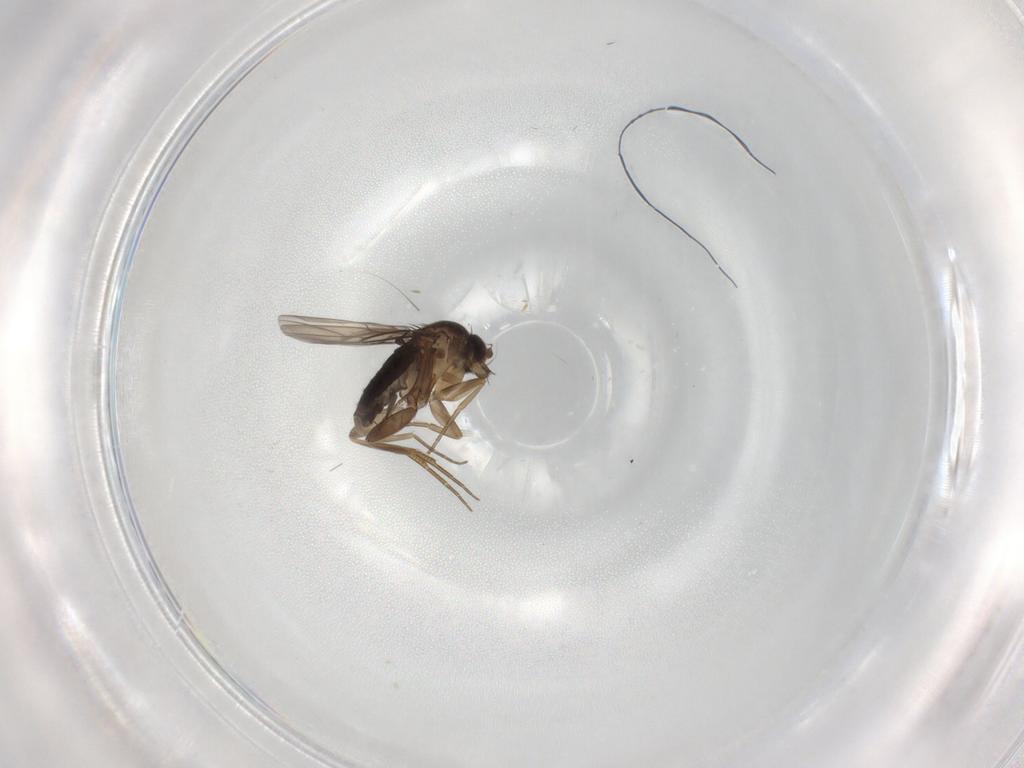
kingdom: Animalia
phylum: Arthropoda
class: Insecta
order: Diptera
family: Phoridae
